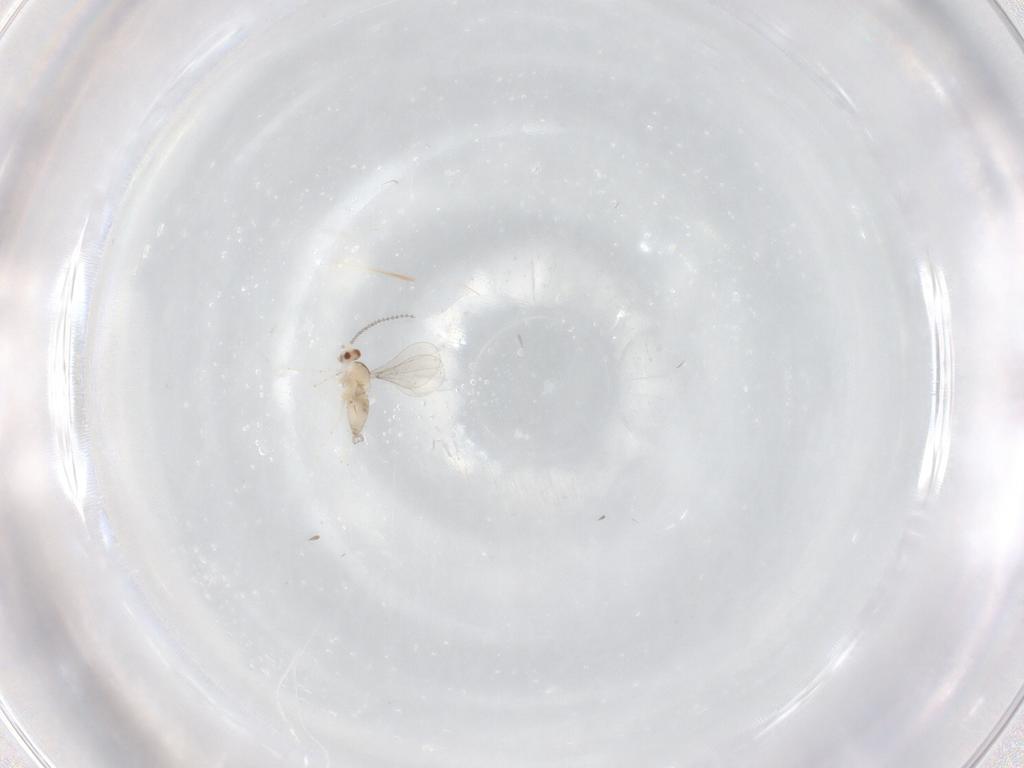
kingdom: Animalia
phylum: Arthropoda
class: Insecta
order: Diptera
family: Cecidomyiidae
